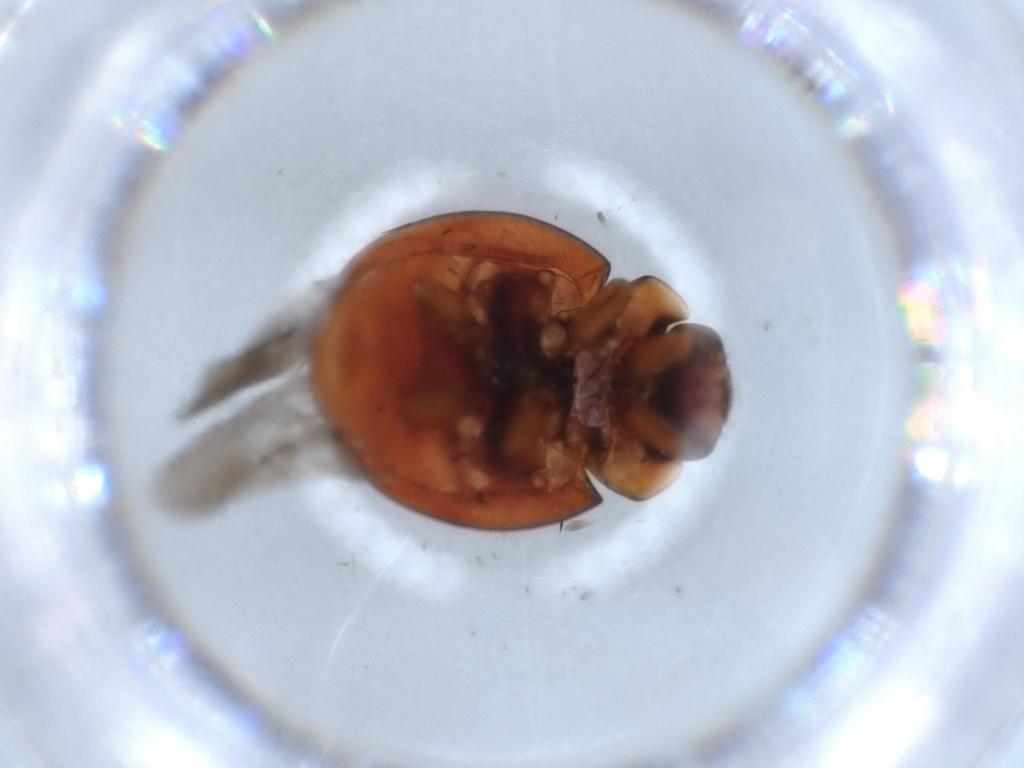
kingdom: Animalia
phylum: Arthropoda
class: Insecta
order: Coleoptera
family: Coccinellidae
